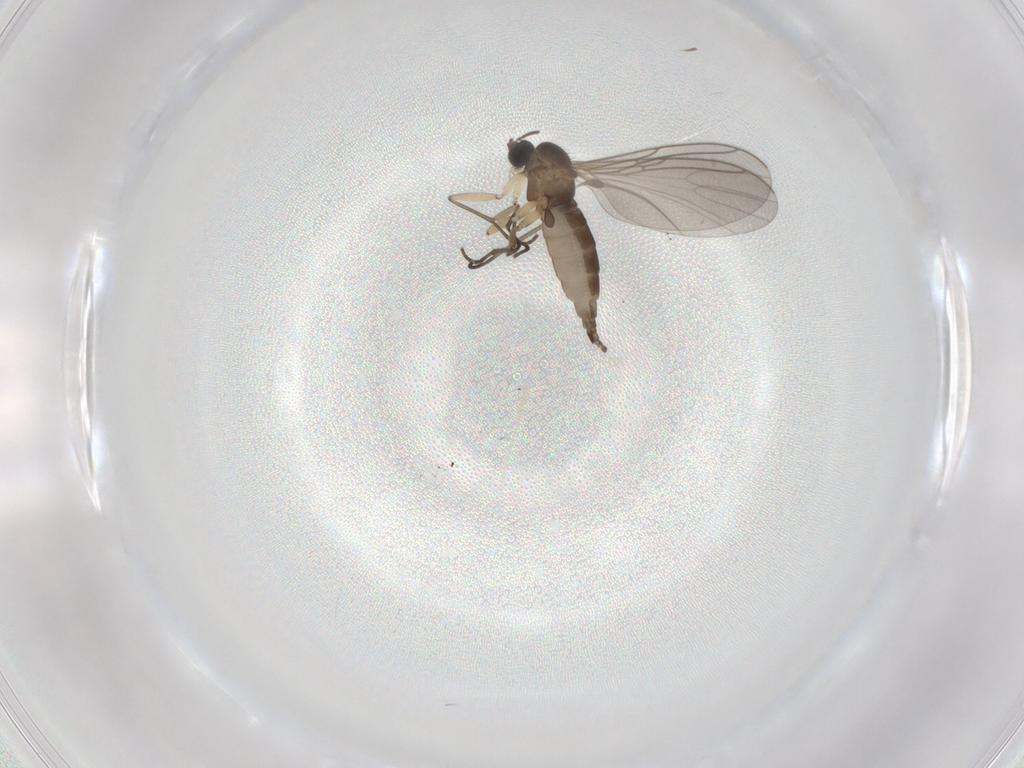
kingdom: Animalia
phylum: Arthropoda
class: Insecta
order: Diptera
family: Sciaridae
